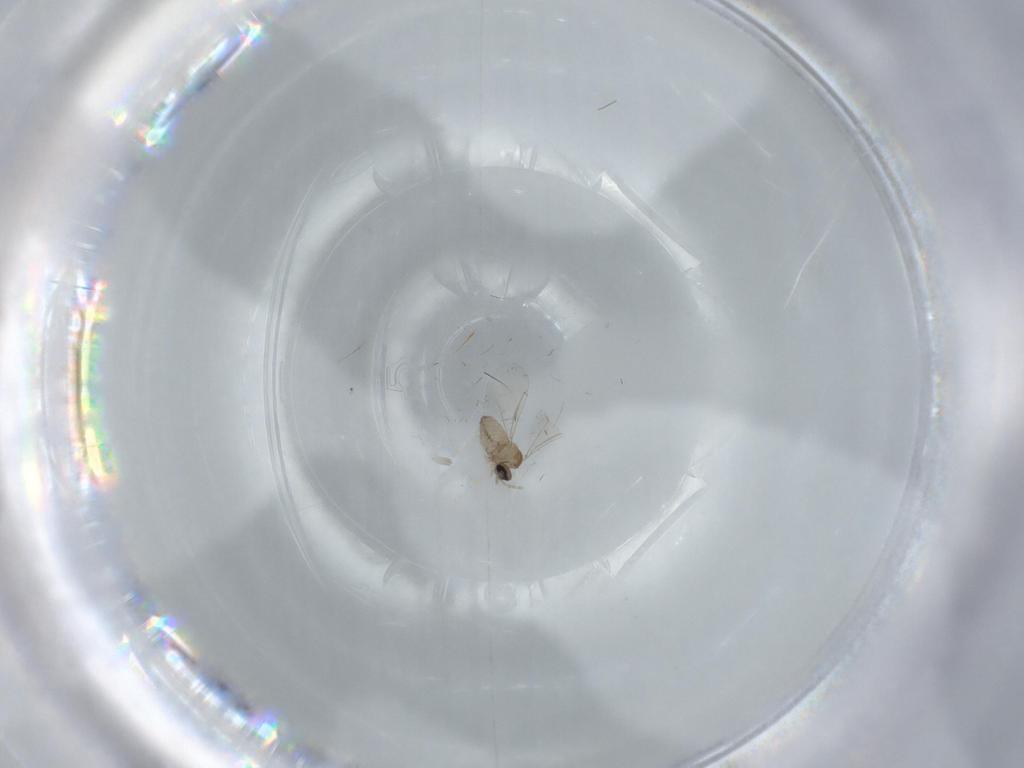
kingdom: Animalia
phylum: Arthropoda
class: Insecta
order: Diptera
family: Cecidomyiidae
